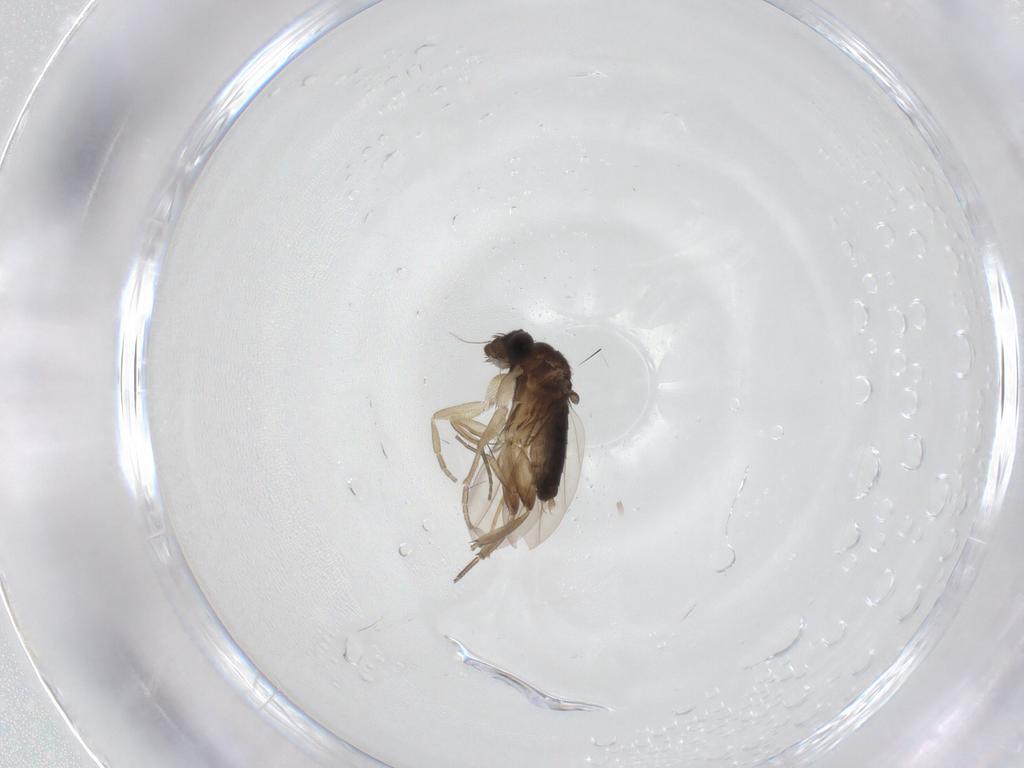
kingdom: Animalia
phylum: Arthropoda
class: Insecta
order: Diptera
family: Phoridae
